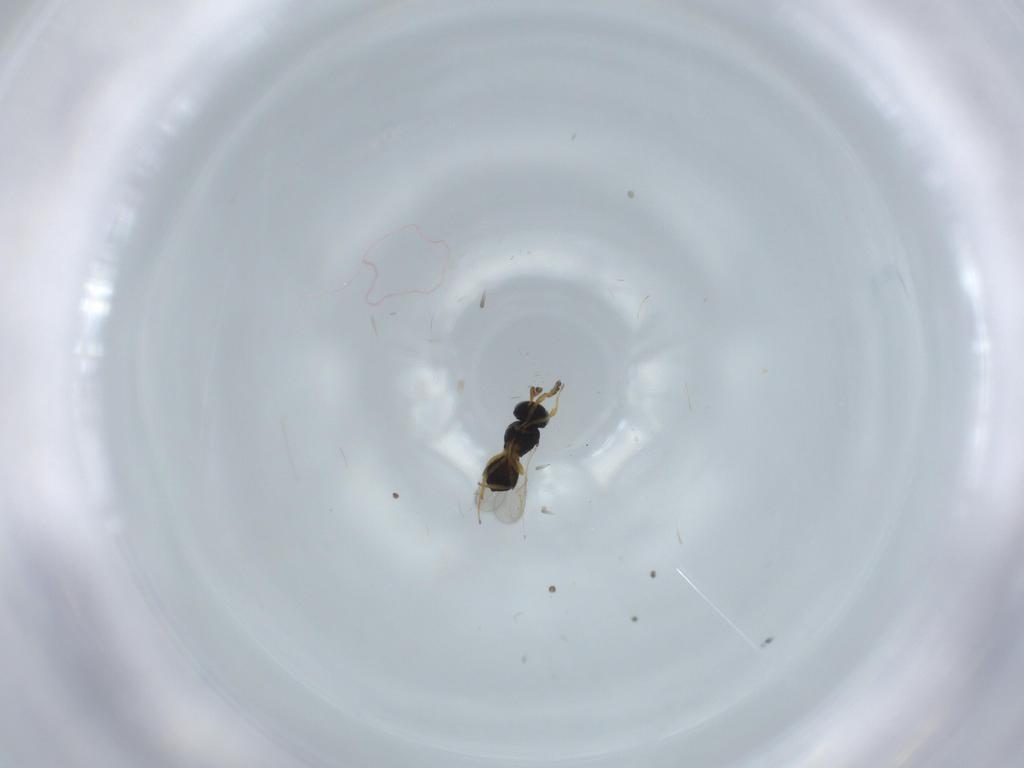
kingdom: Animalia
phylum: Arthropoda
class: Insecta
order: Hymenoptera
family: Scelionidae
